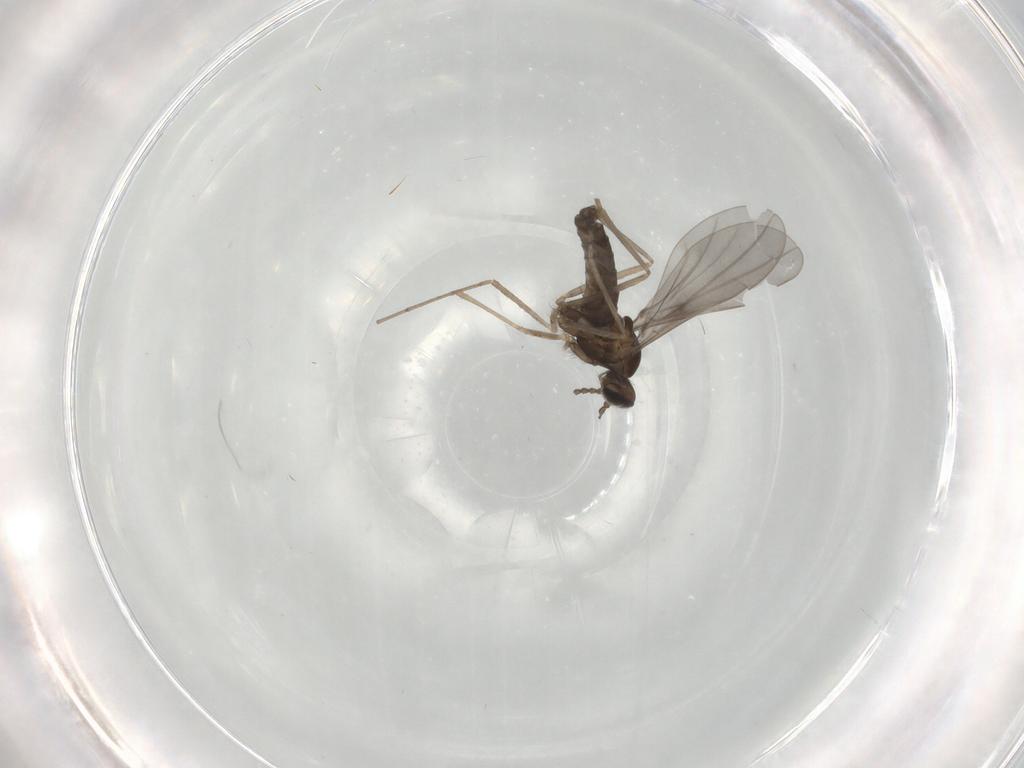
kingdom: Animalia
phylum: Arthropoda
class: Insecta
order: Diptera
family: Cecidomyiidae
